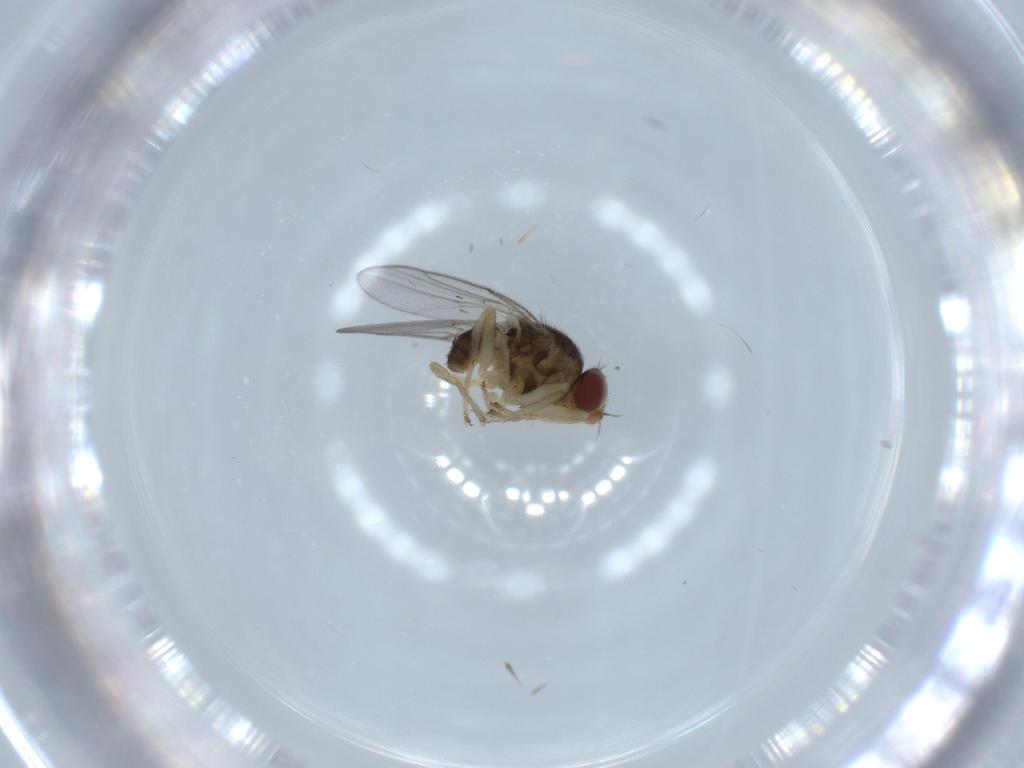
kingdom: Animalia
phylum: Arthropoda
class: Insecta
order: Diptera
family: Chloropidae
